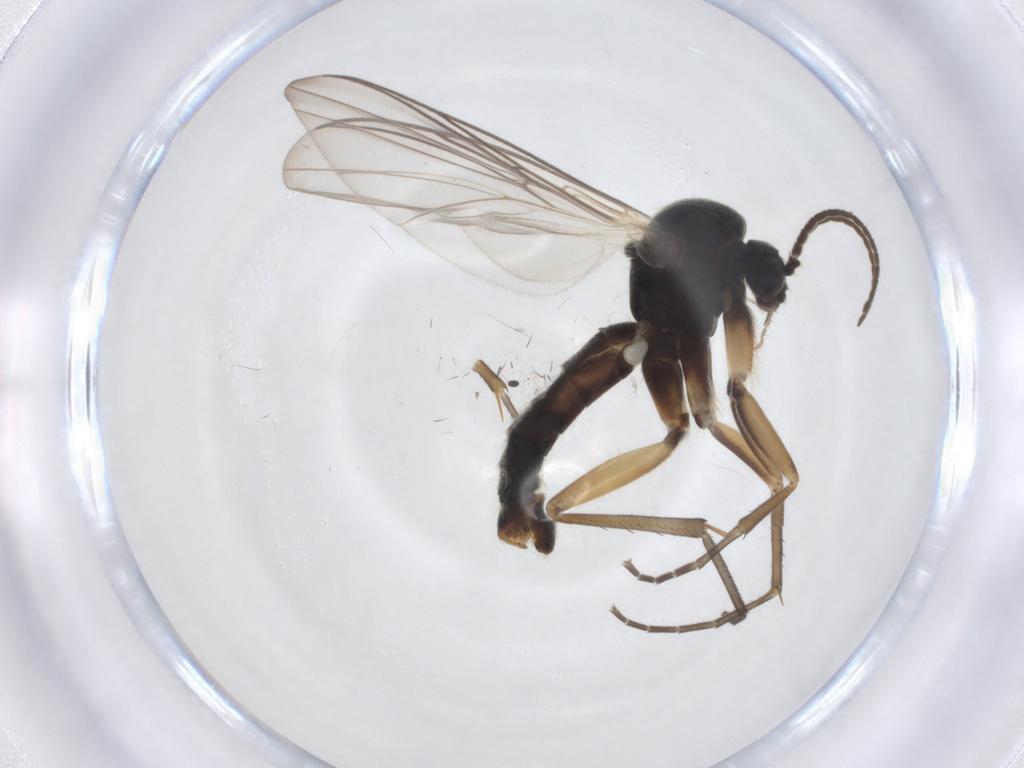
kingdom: Animalia
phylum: Arthropoda
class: Insecta
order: Diptera
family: Mycetophilidae
